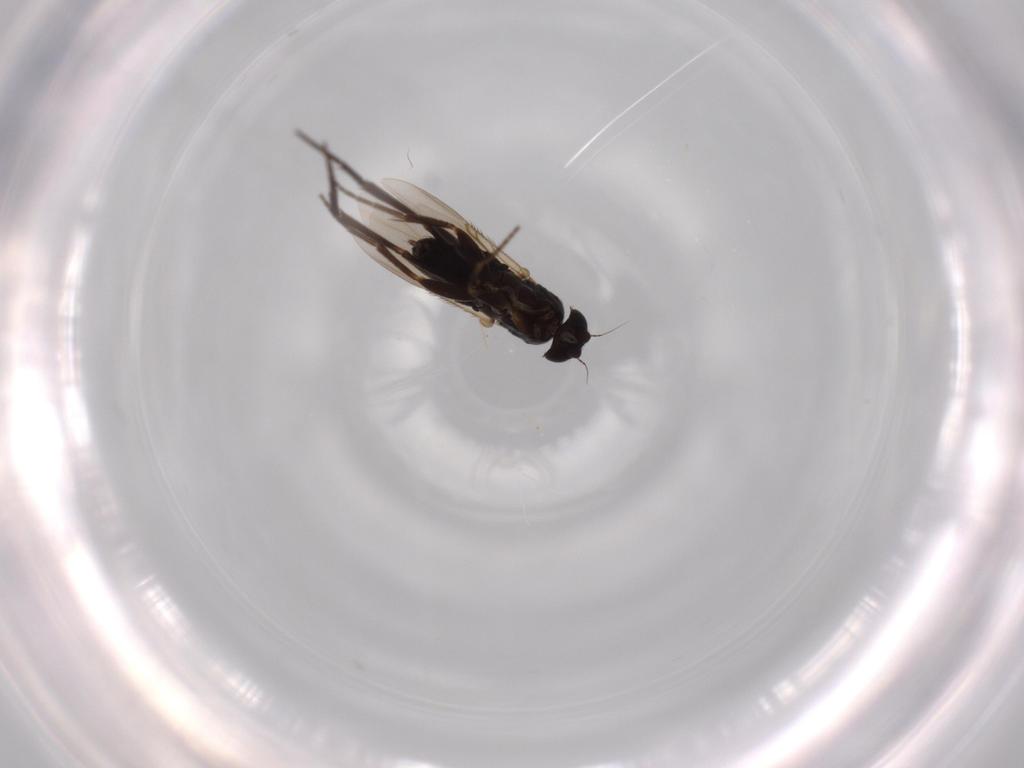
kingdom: Animalia
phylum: Arthropoda
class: Insecta
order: Diptera
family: Phoridae
